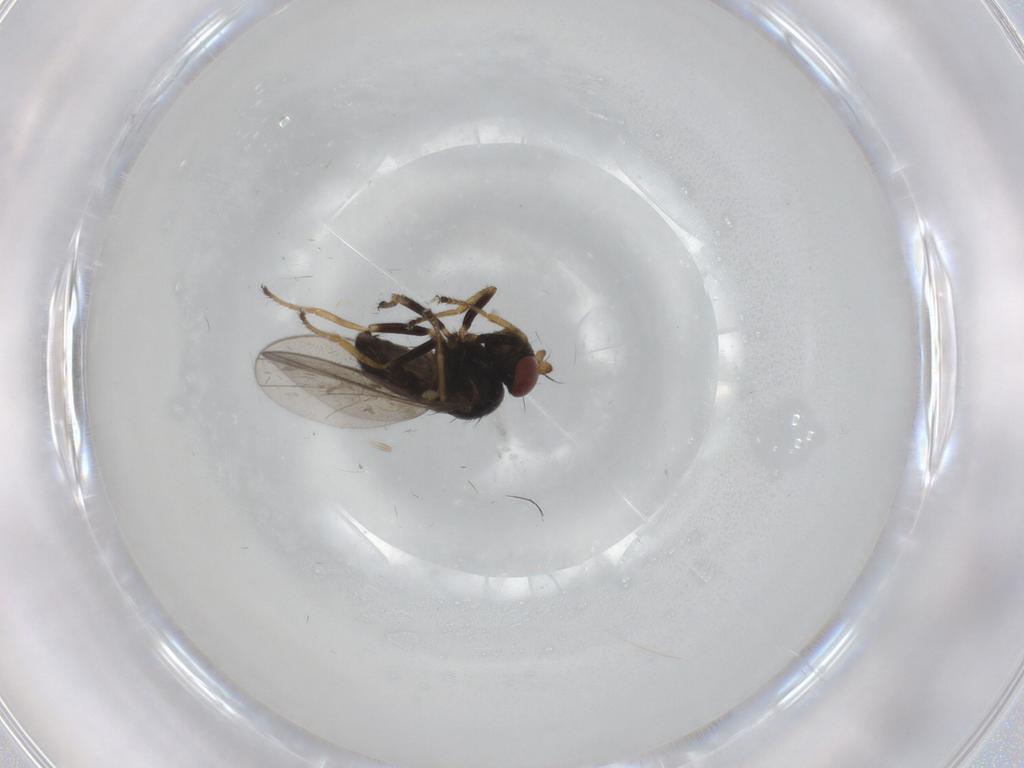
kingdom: Animalia
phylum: Arthropoda
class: Insecta
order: Diptera
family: Ephydridae
